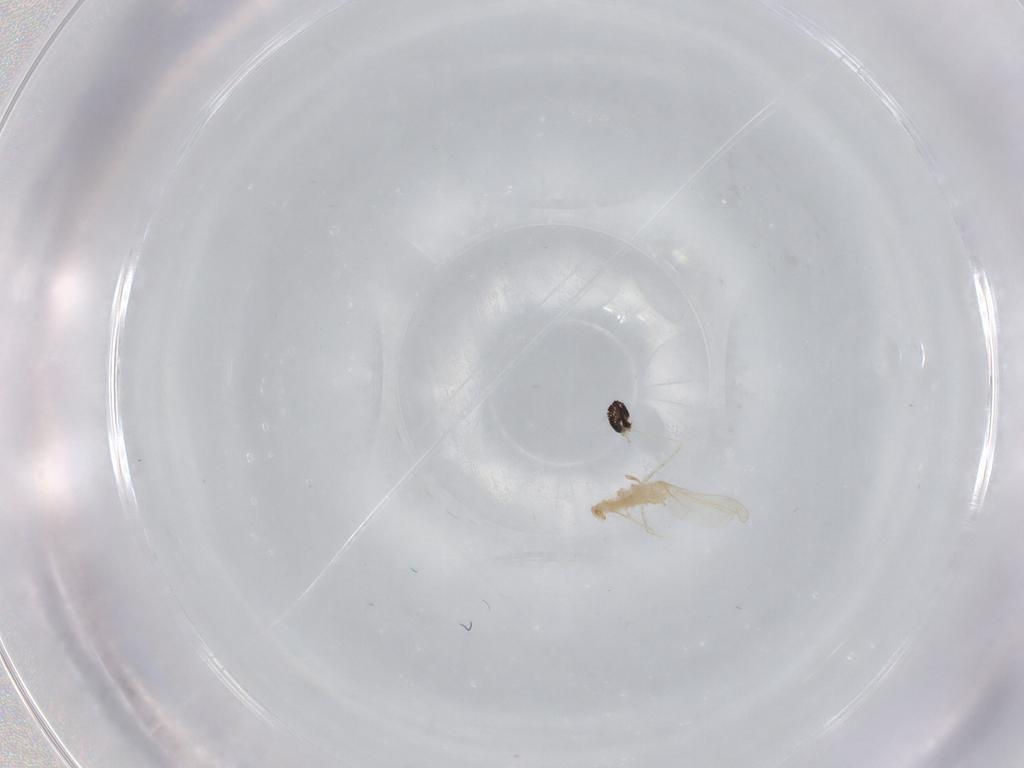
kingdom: Animalia
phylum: Arthropoda
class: Insecta
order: Diptera
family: Cecidomyiidae
